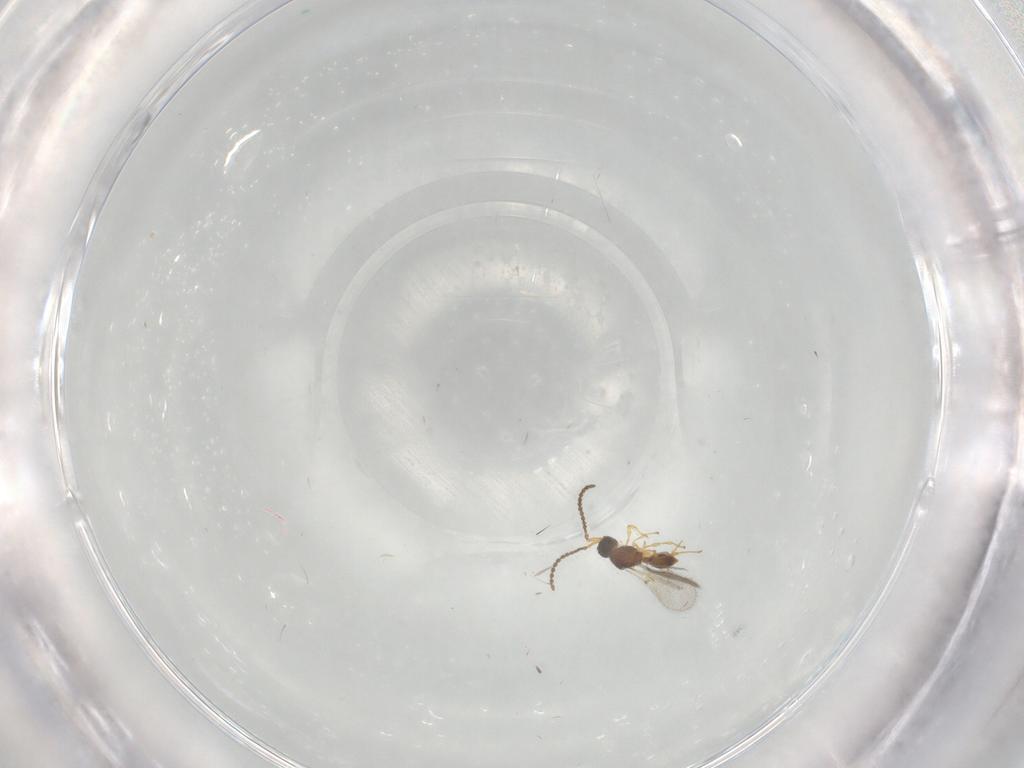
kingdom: Animalia
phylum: Arthropoda
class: Insecta
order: Hymenoptera
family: Diapriidae
